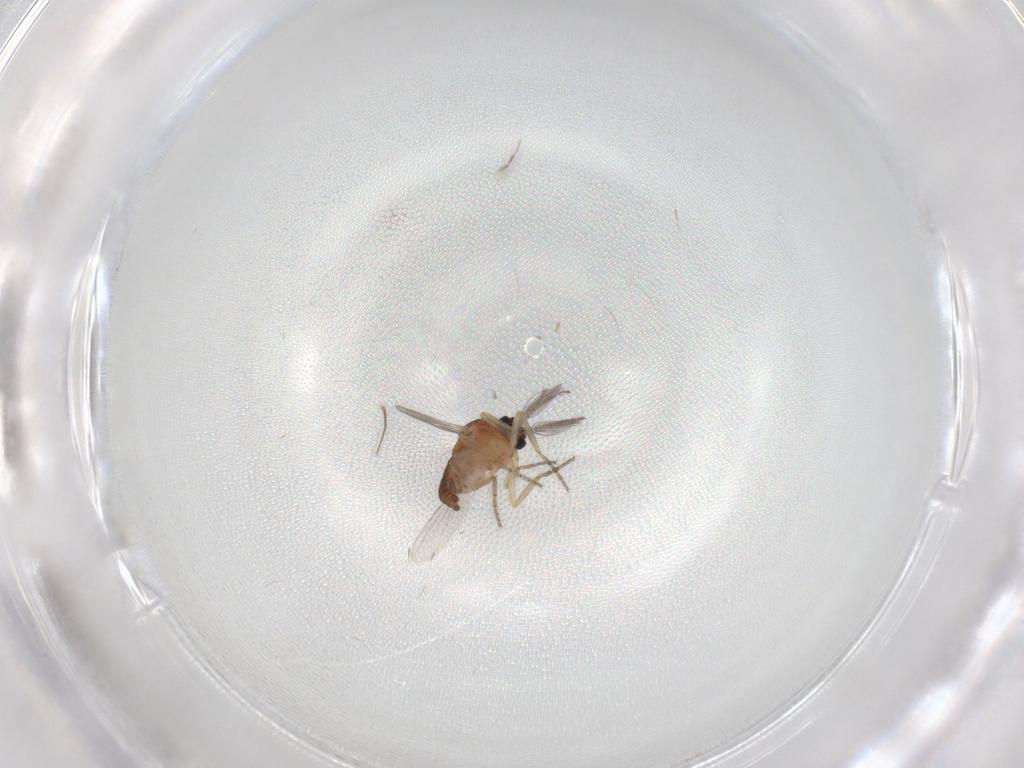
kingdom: Animalia
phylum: Arthropoda
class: Insecta
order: Diptera
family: Ceratopogonidae
